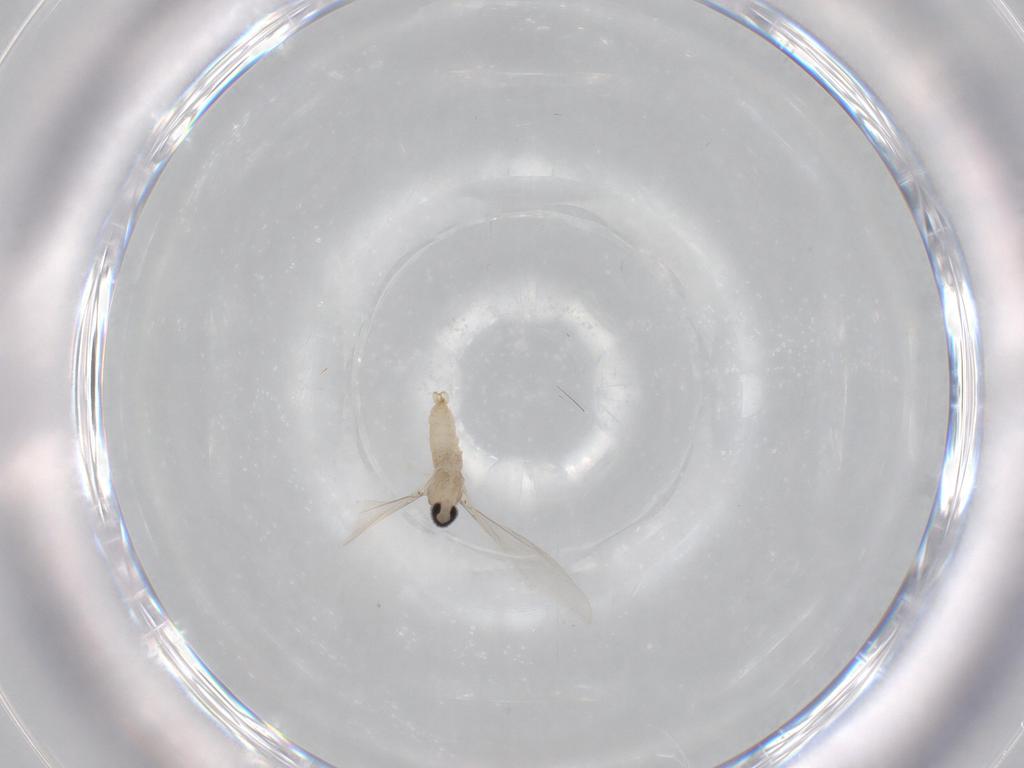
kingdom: Animalia
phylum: Arthropoda
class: Insecta
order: Diptera
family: Cecidomyiidae
